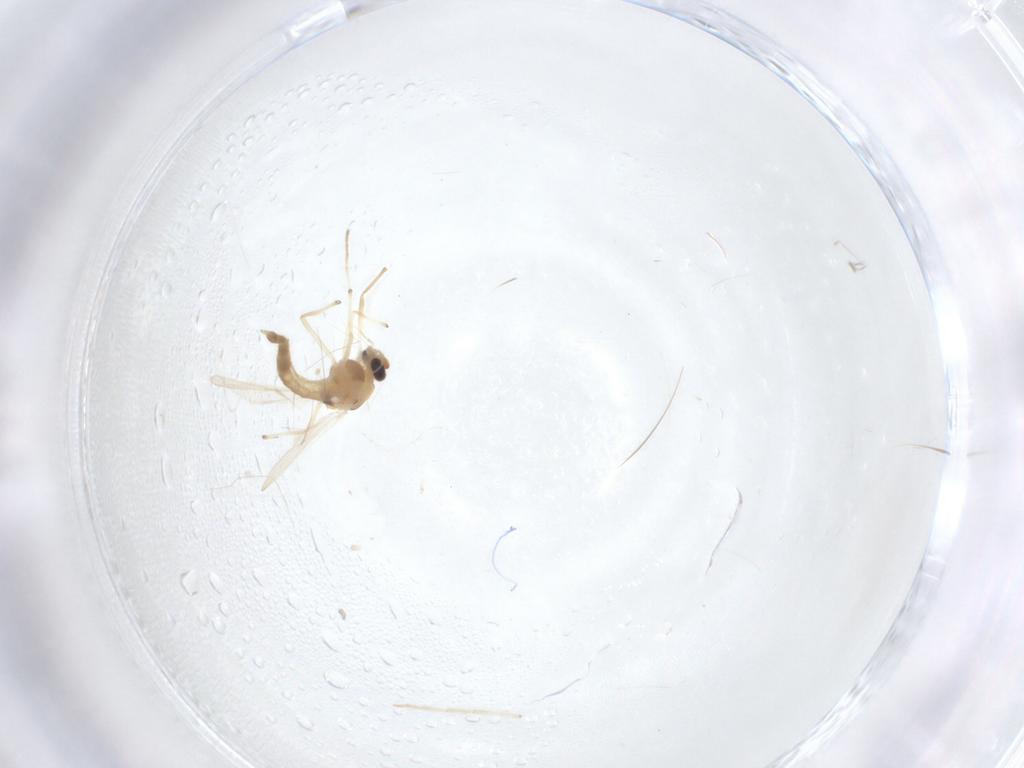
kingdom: Animalia
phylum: Arthropoda
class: Insecta
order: Diptera
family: Chironomidae
